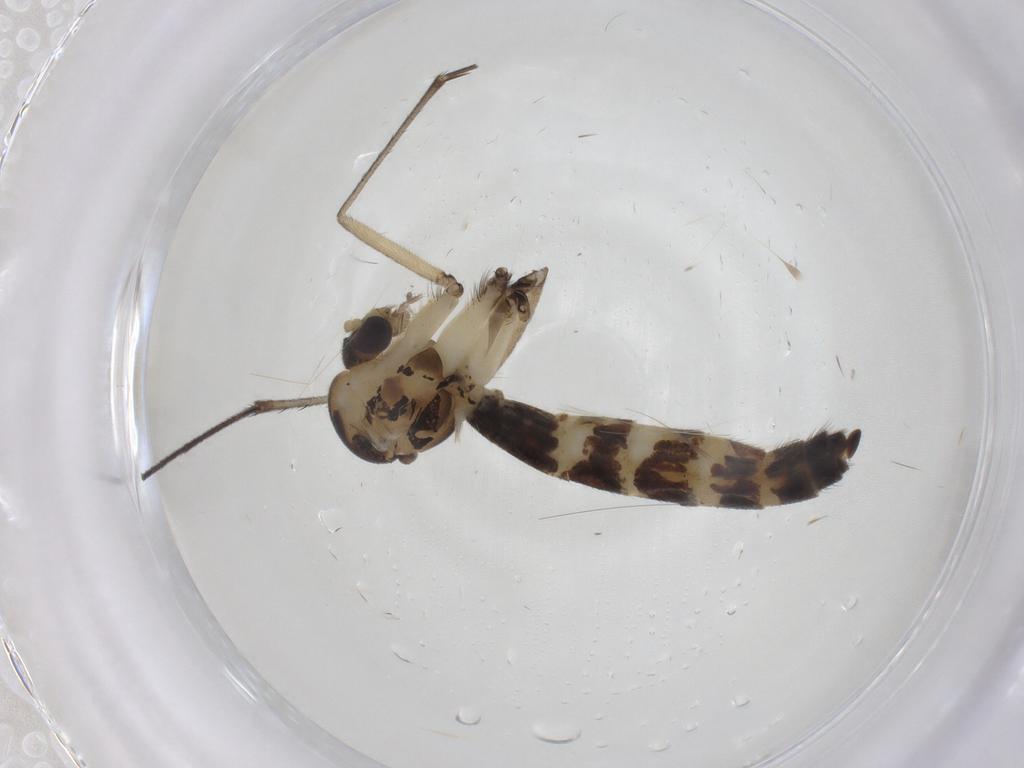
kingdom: Animalia
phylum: Arthropoda
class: Insecta
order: Diptera
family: Mycetophilidae
